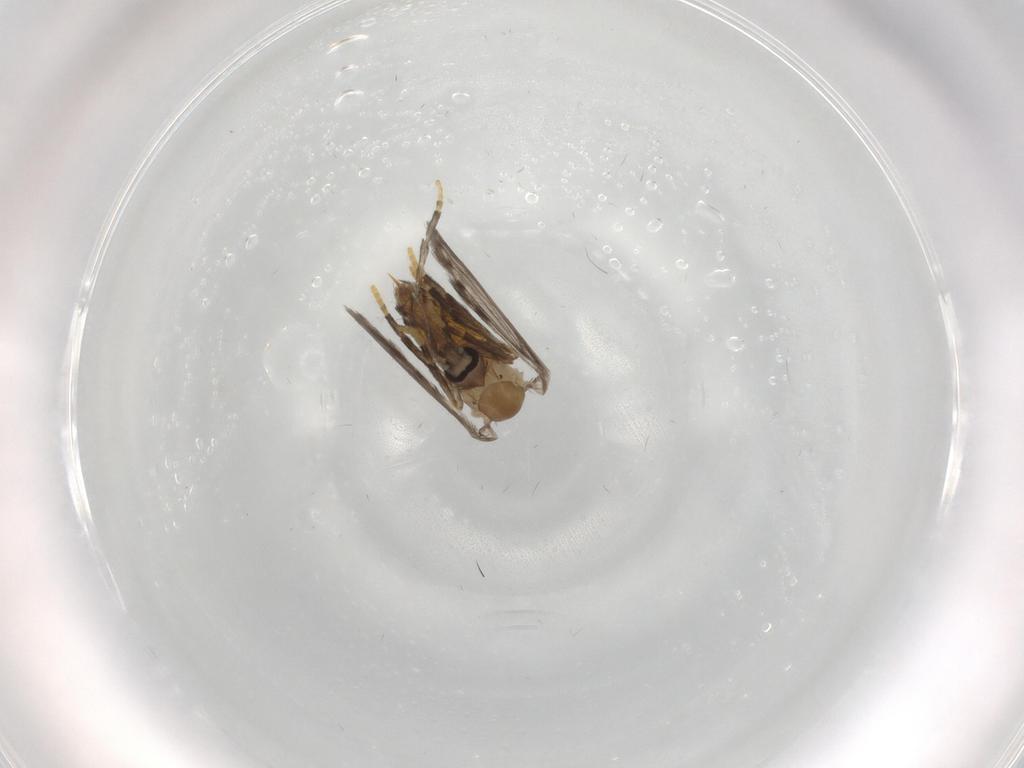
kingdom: Animalia
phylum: Arthropoda
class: Insecta
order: Diptera
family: Psychodidae
